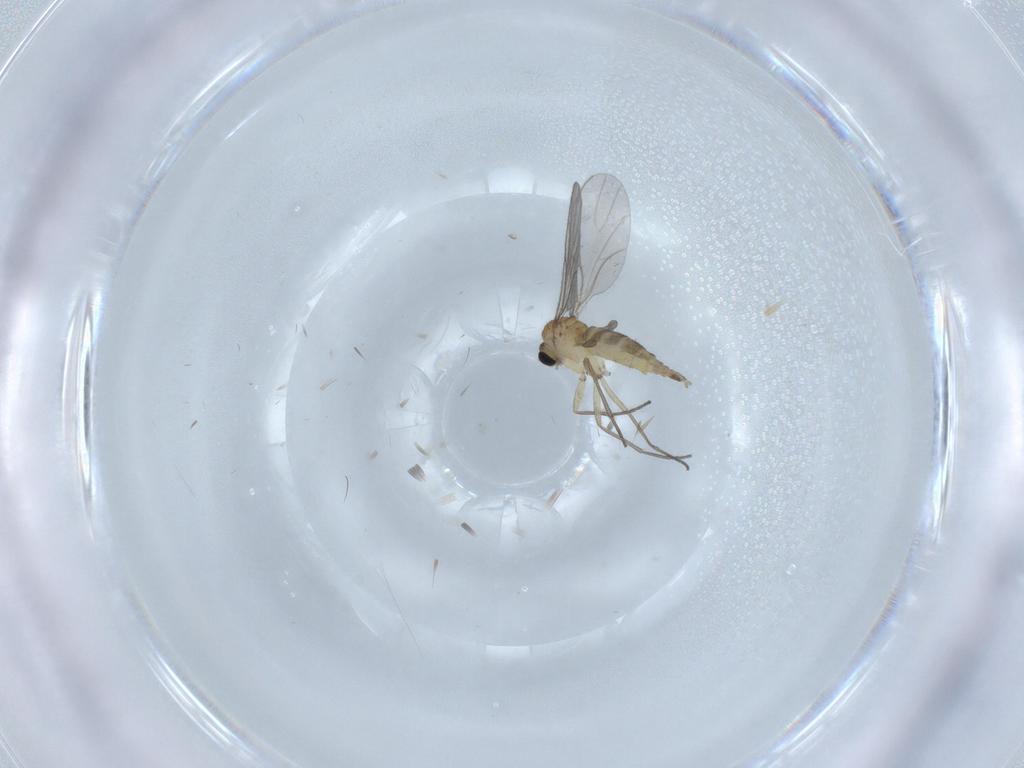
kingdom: Animalia
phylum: Arthropoda
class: Insecta
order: Diptera
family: Sciaridae
